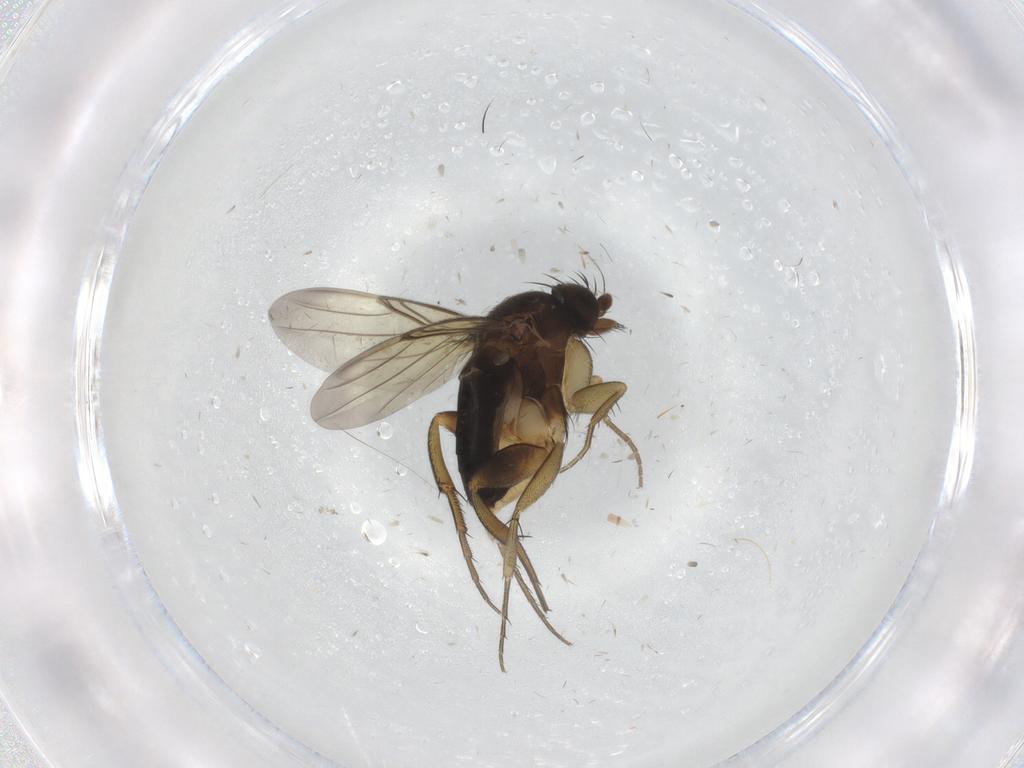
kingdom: Animalia
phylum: Arthropoda
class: Insecta
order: Diptera
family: Phoridae
